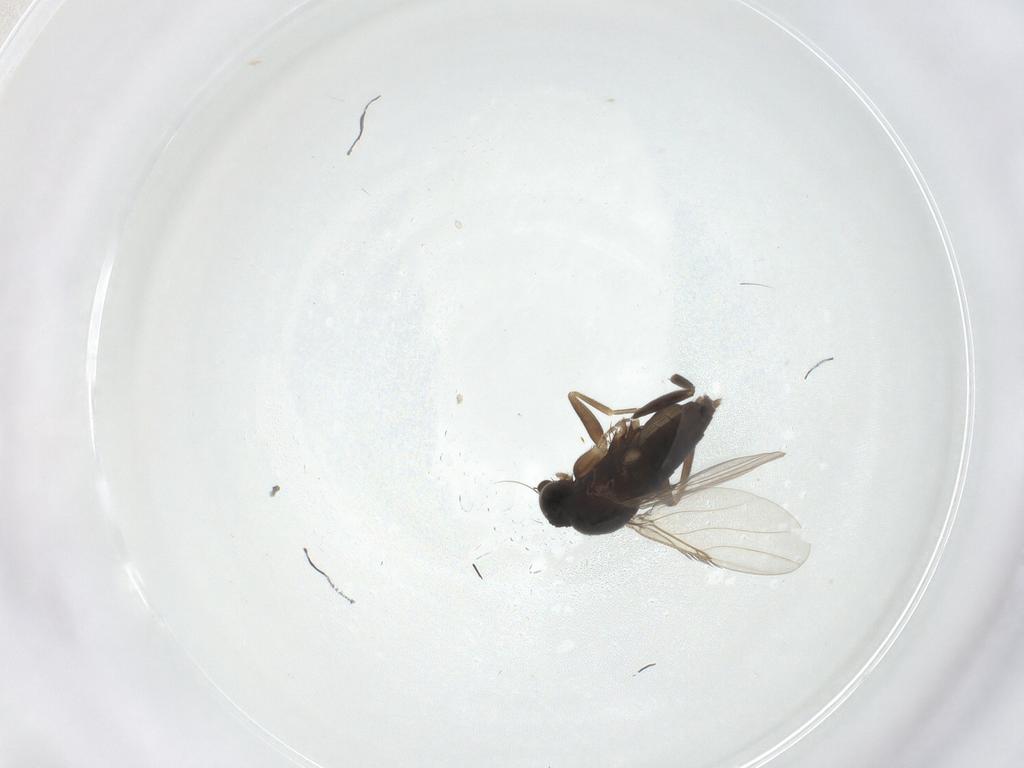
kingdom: Animalia
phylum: Arthropoda
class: Insecta
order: Diptera
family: Phoridae
